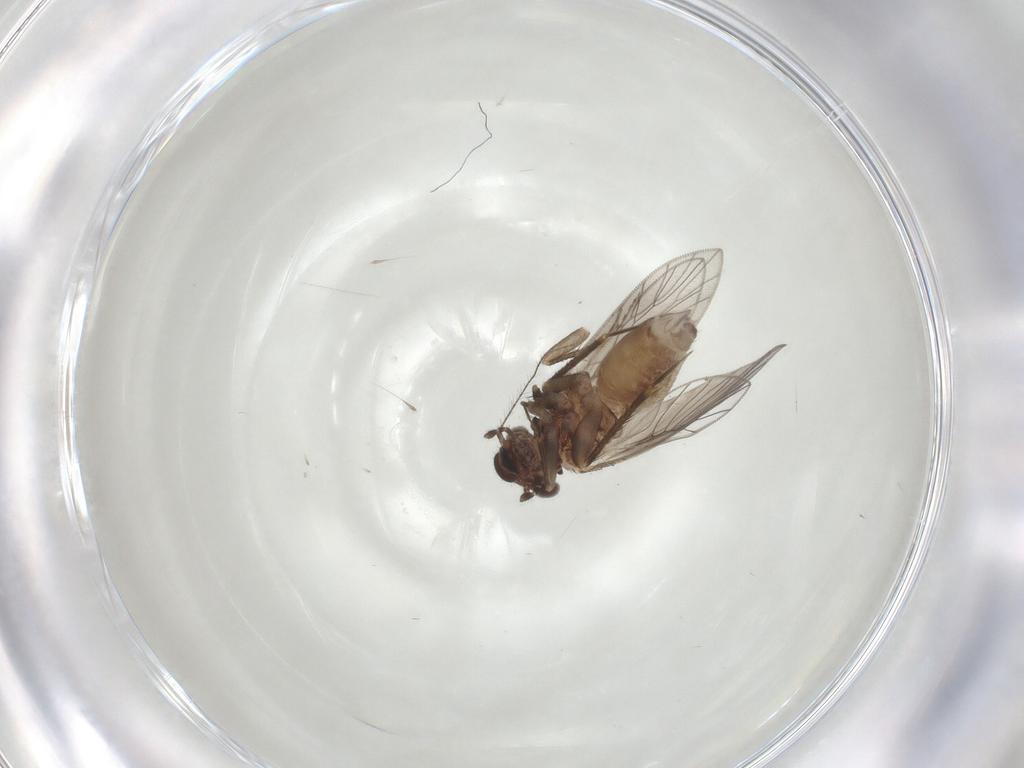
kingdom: Animalia
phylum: Arthropoda
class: Insecta
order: Psocodea
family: Lepidopsocidae
